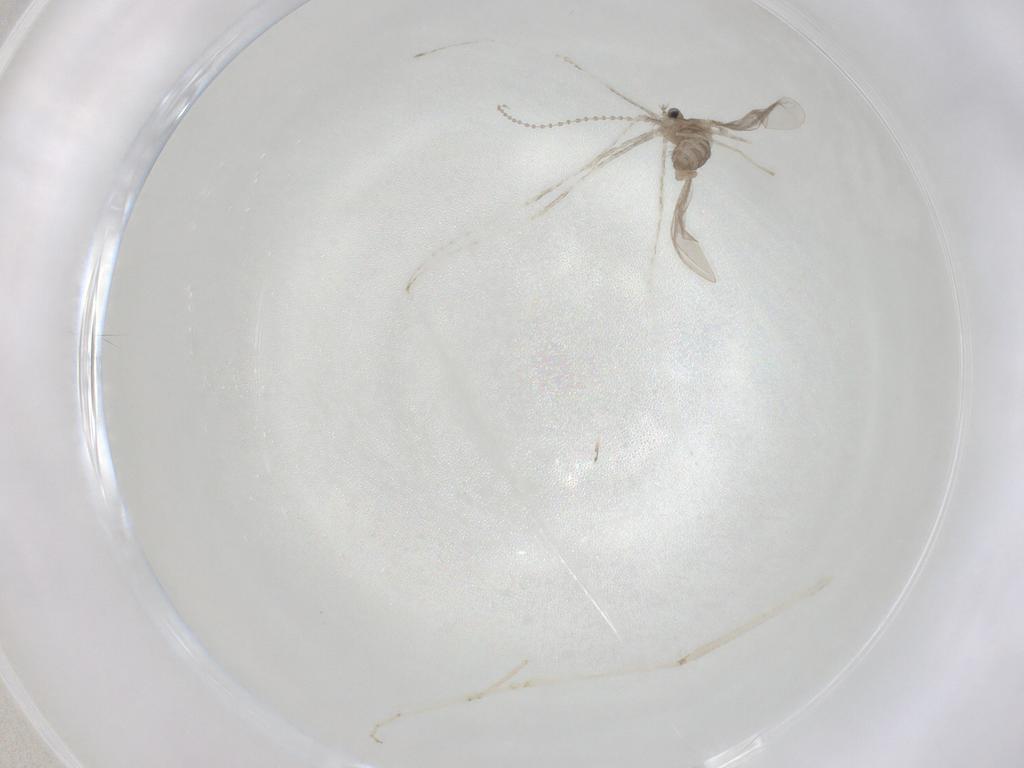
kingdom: Animalia
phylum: Arthropoda
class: Insecta
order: Diptera
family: Cecidomyiidae
